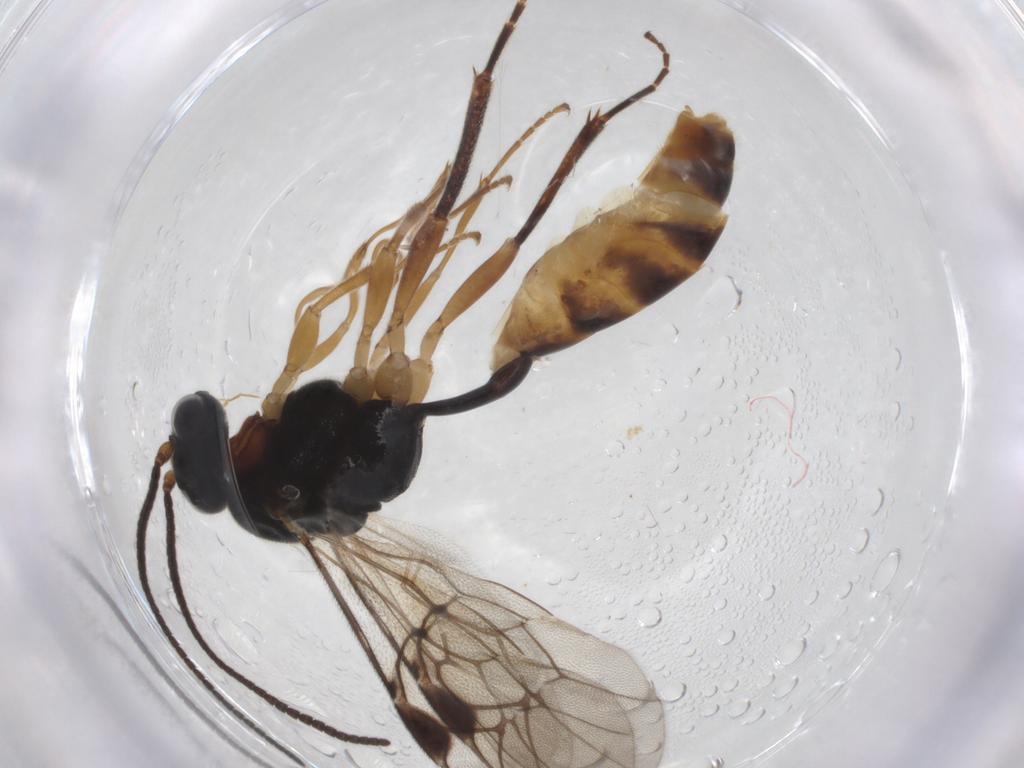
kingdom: Animalia
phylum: Arthropoda
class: Insecta
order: Hymenoptera
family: Ichneumonidae
